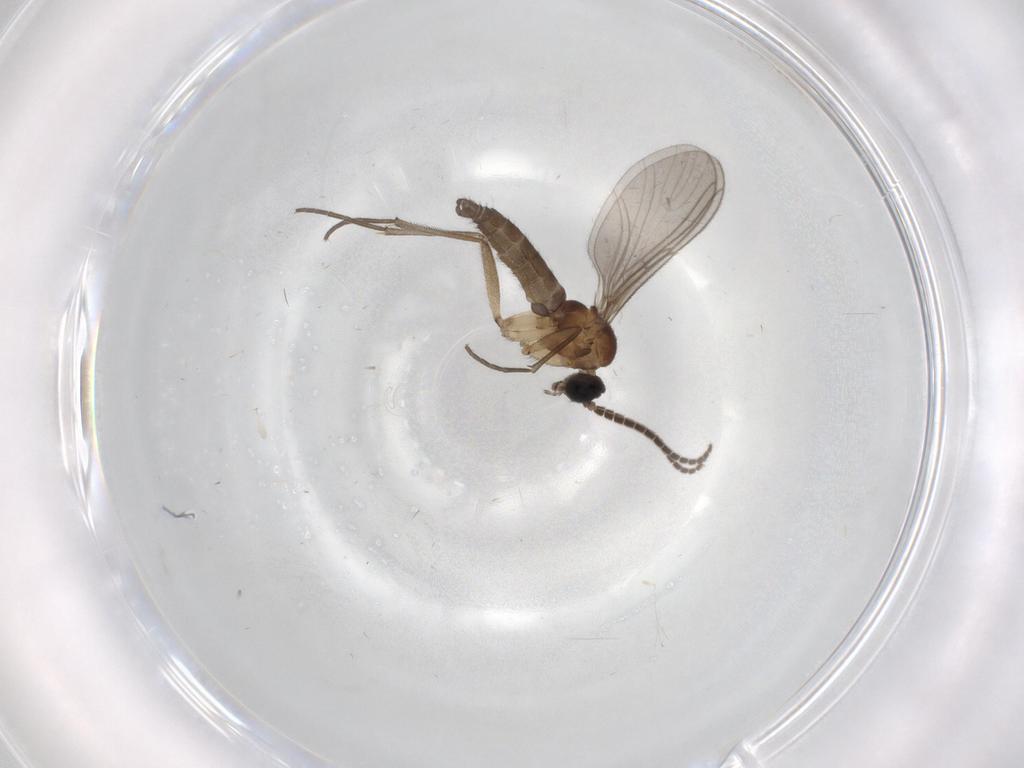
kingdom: Animalia
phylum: Arthropoda
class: Insecta
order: Diptera
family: Sciaridae
